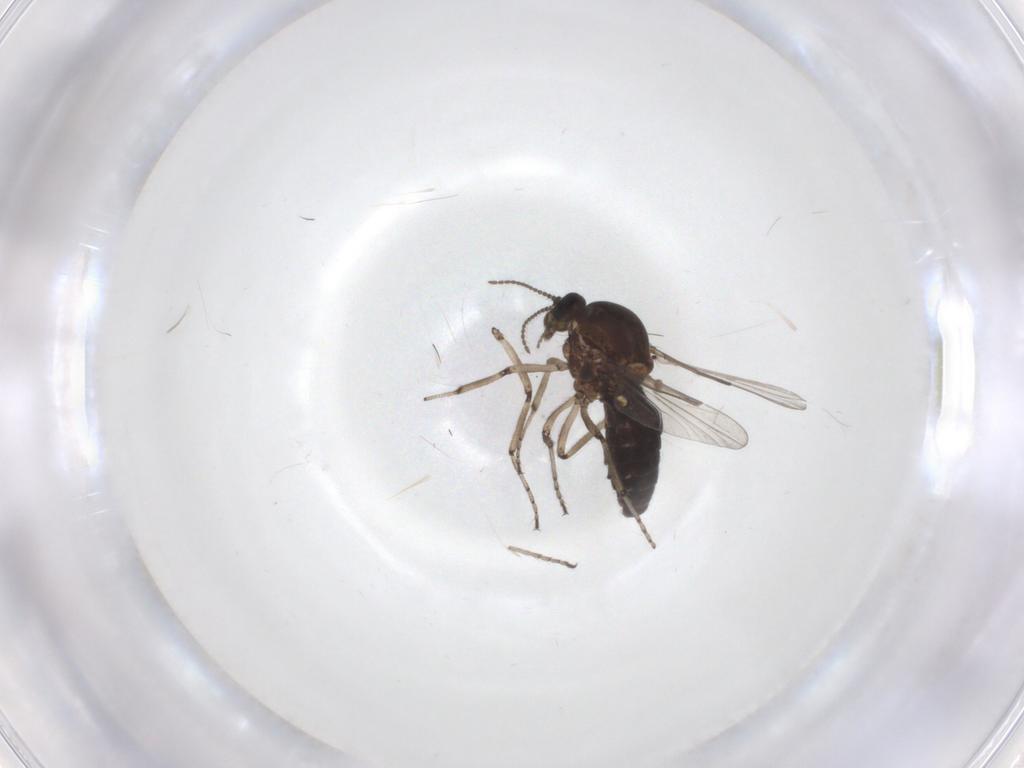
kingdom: Animalia
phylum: Arthropoda
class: Insecta
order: Diptera
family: Ceratopogonidae
